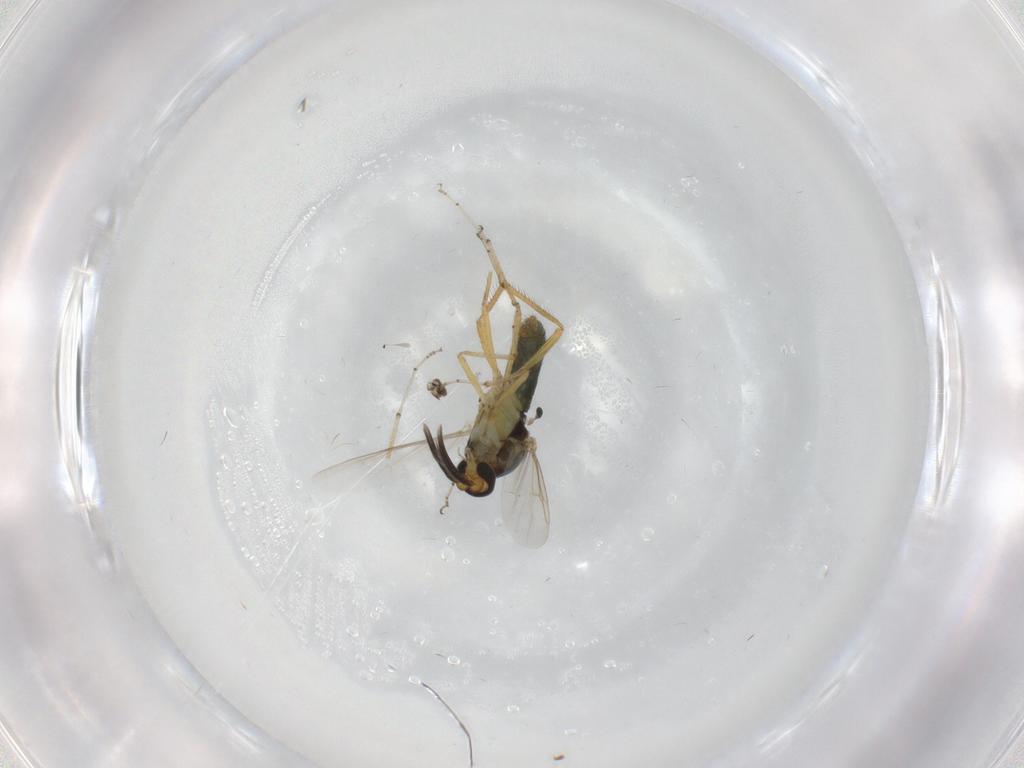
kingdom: Animalia
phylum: Arthropoda
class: Insecta
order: Diptera
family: Ceratopogonidae
